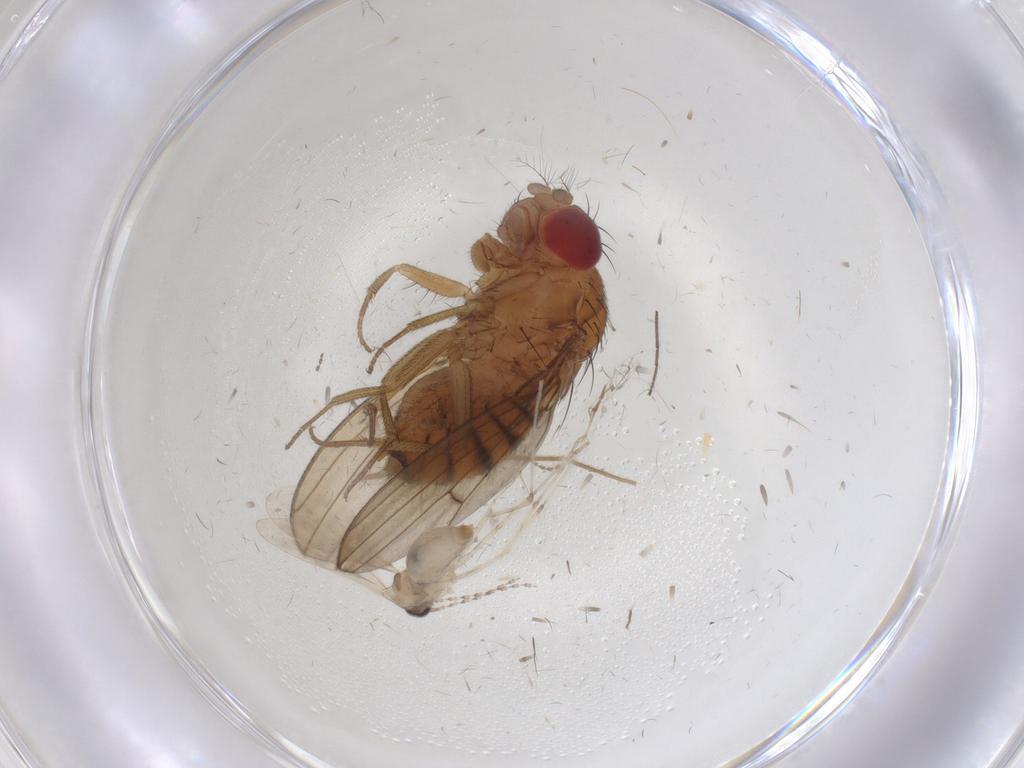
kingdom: Animalia
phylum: Arthropoda
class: Insecta
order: Diptera
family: Drosophilidae
